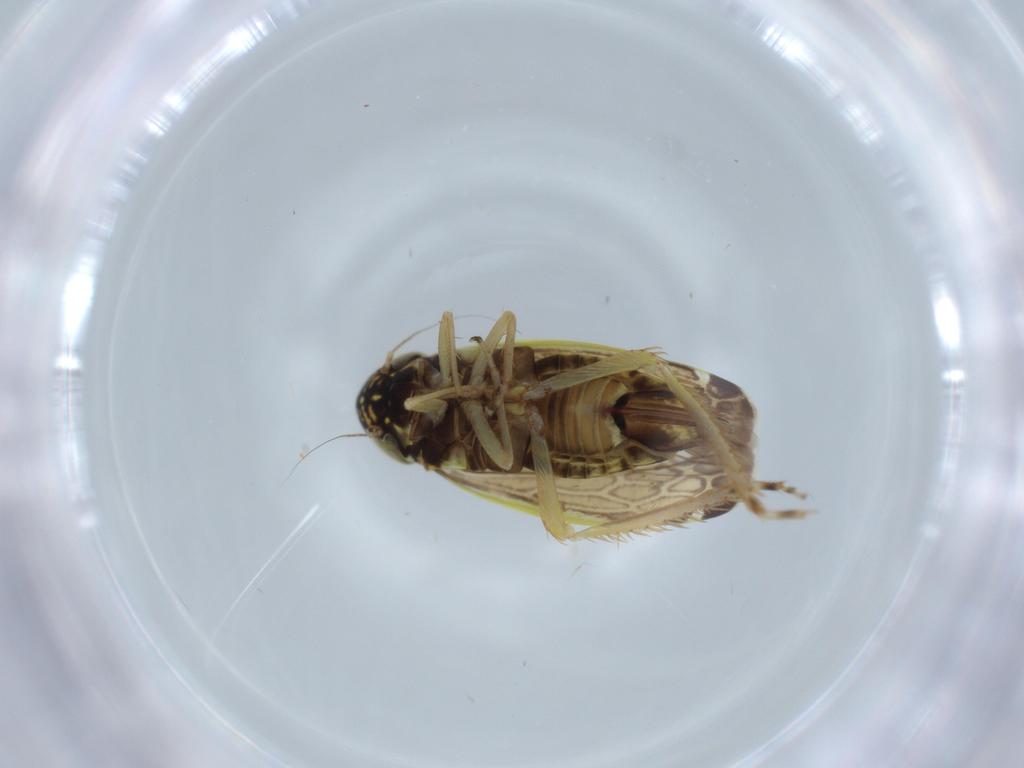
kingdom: Animalia
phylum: Arthropoda
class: Insecta
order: Hemiptera
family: Cicadellidae
